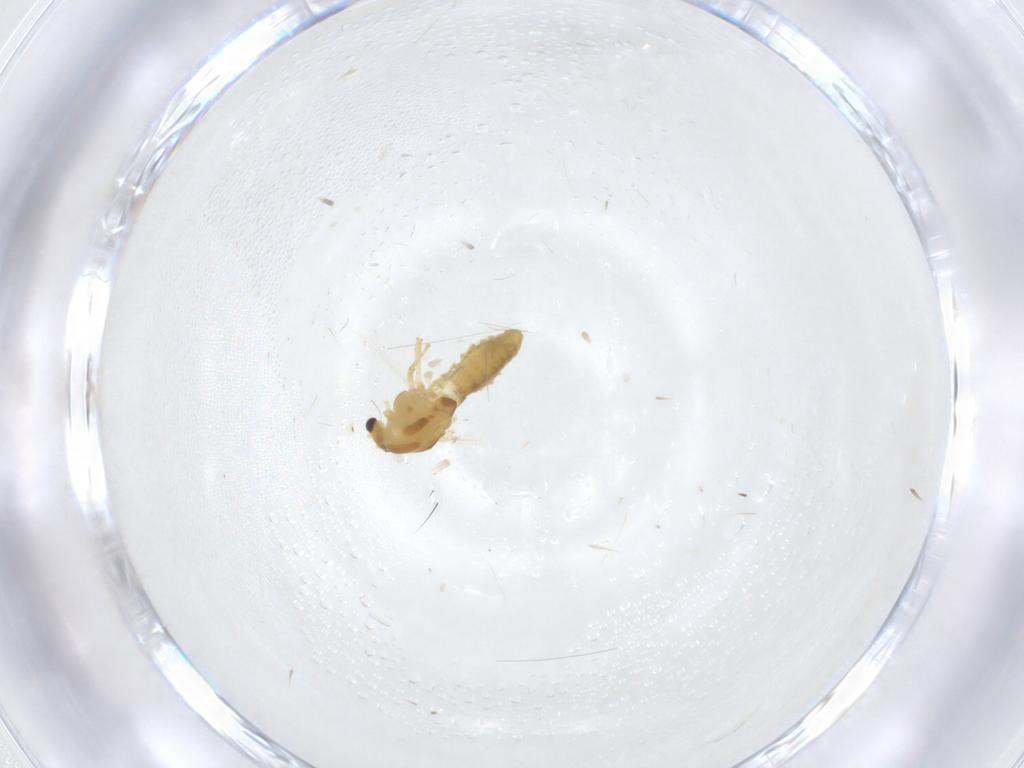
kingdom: Animalia
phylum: Arthropoda
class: Insecta
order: Diptera
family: Chironomidae
